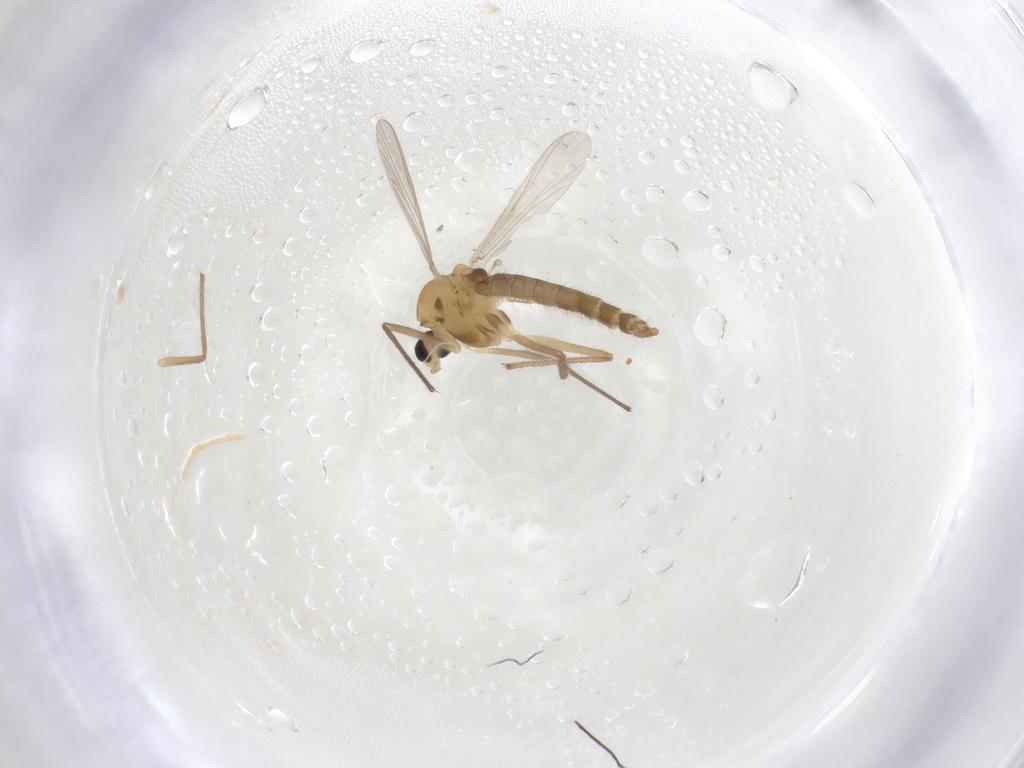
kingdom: Animalia
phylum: Arthropoda
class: Insecta
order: Diptera
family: Chironomidae
